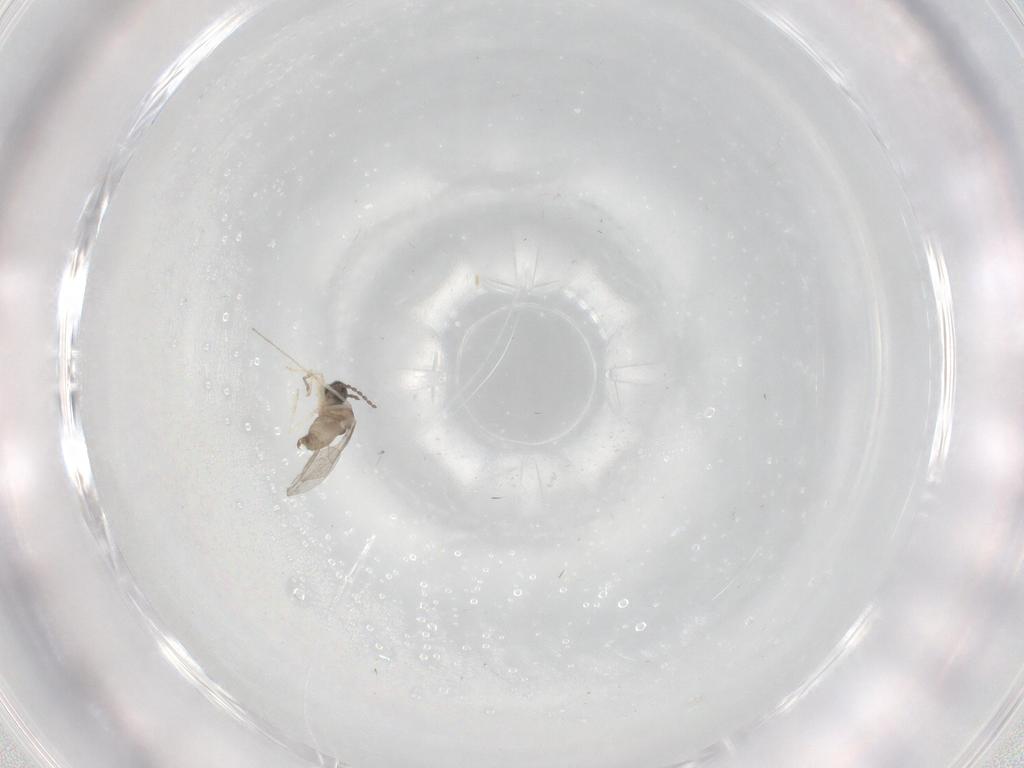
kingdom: Animalia
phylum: Arthropoda
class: Insecta
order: Diptera
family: Cecidomyiidae
